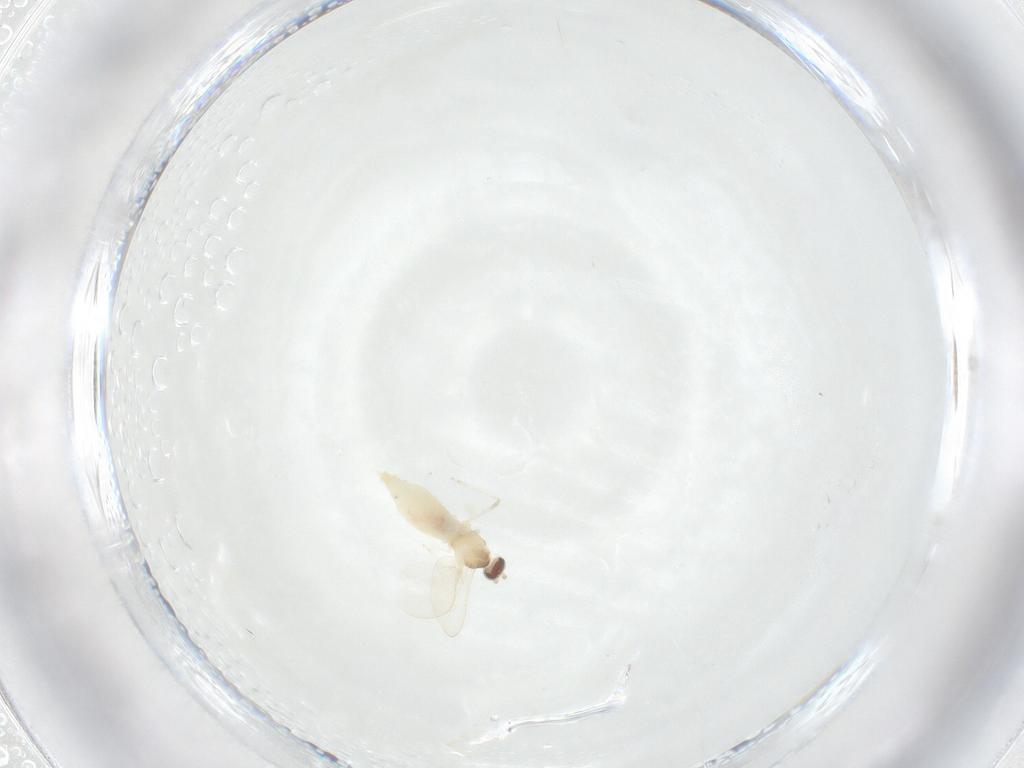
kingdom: Animalia
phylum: Arthropoda
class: Insecta
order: Diptera
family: Cecidomyiidae
